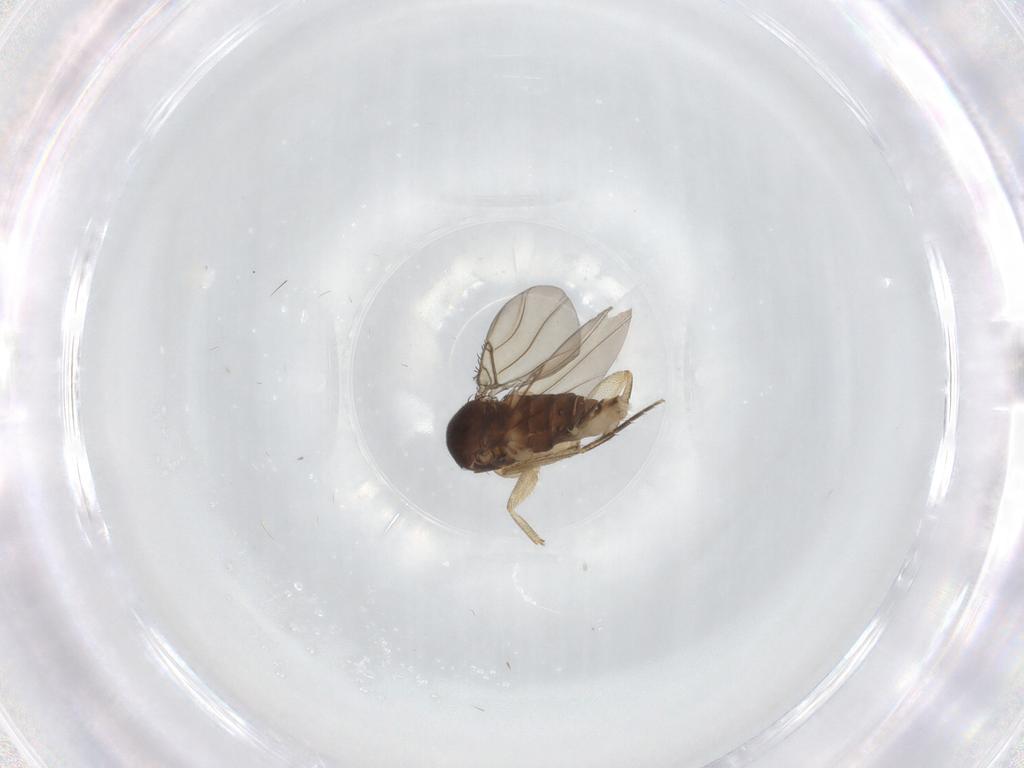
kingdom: Animalia
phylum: Arthropoda
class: Insecta
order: Diptera
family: Phoridae
